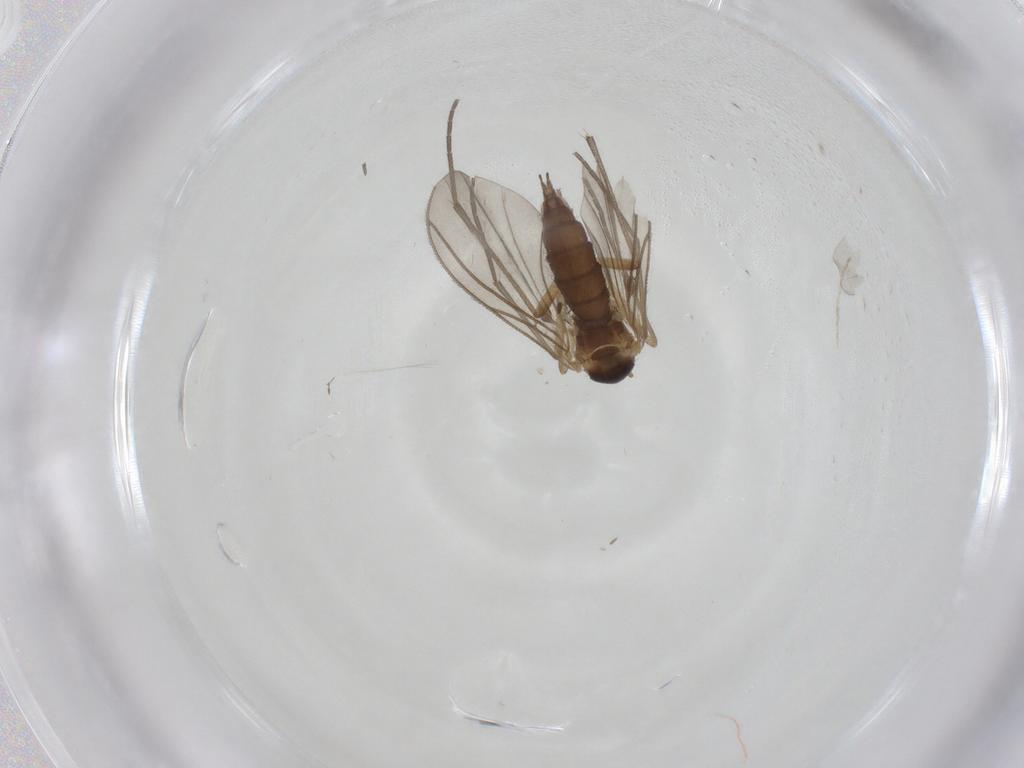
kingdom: Animalia
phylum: Arthropoda
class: Insecta
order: Diptera
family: Sciaridae
